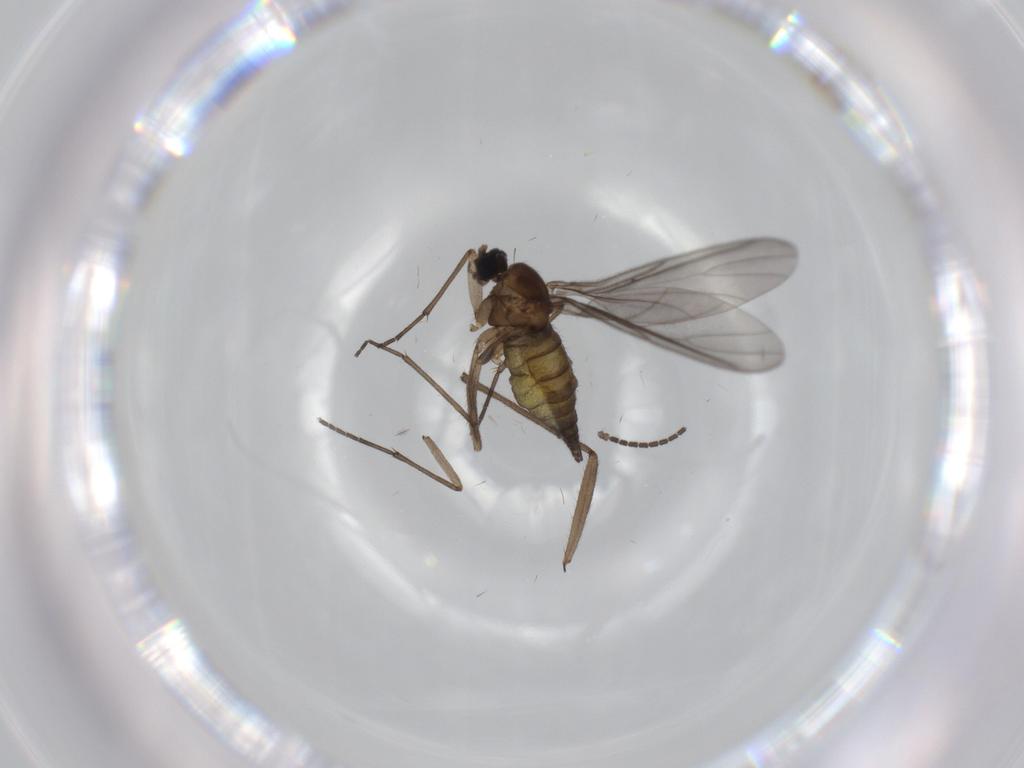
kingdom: Animalia
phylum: Arthropoda
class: Insecta
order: Diptera
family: Sciaridae
